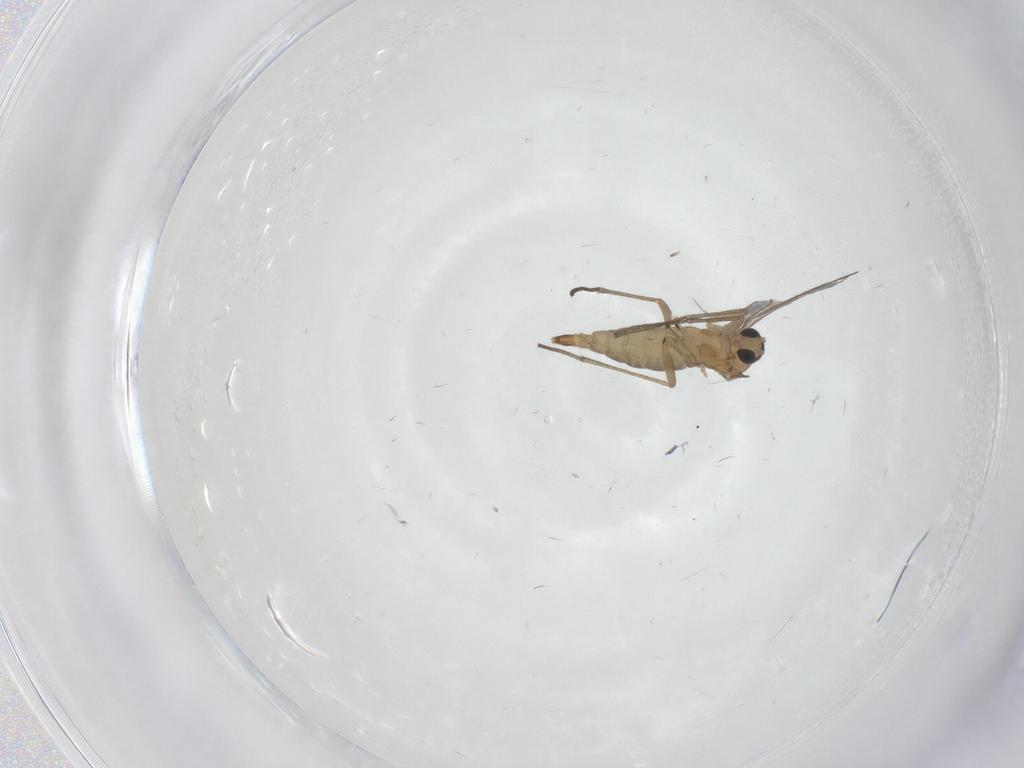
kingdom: Animalia
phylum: Arthropoda
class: Insecta
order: Diptera
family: Sciaridae
